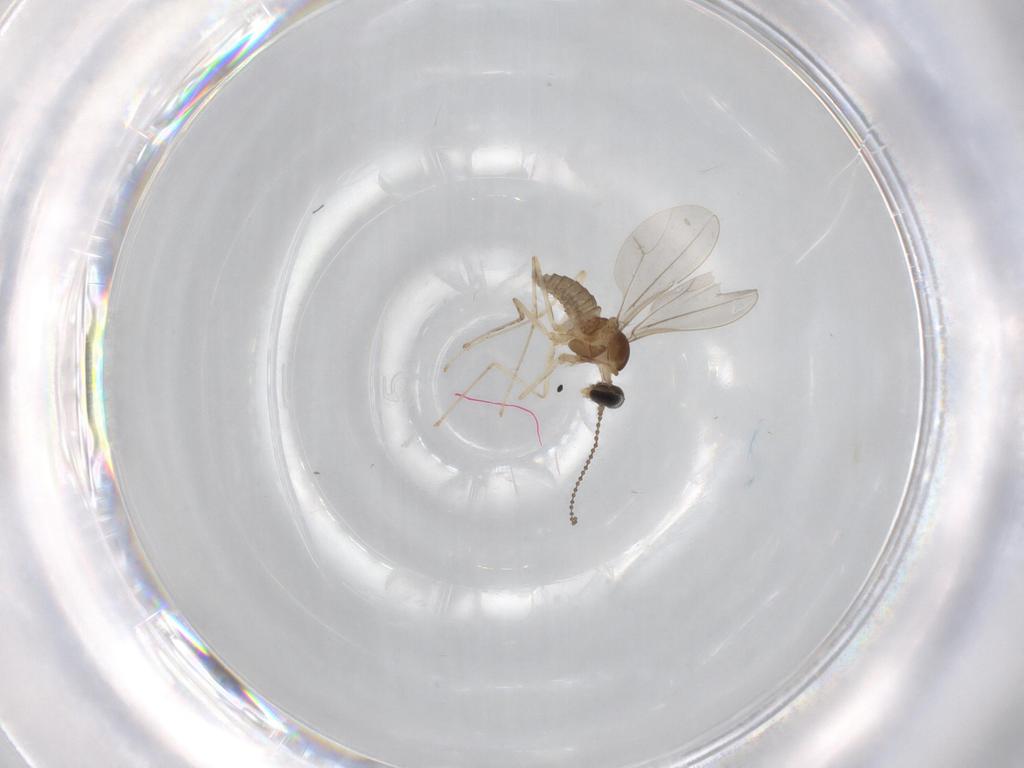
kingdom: Animalia
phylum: Arthropoda
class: Insecta
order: Diptera
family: Cecidomyiidae
